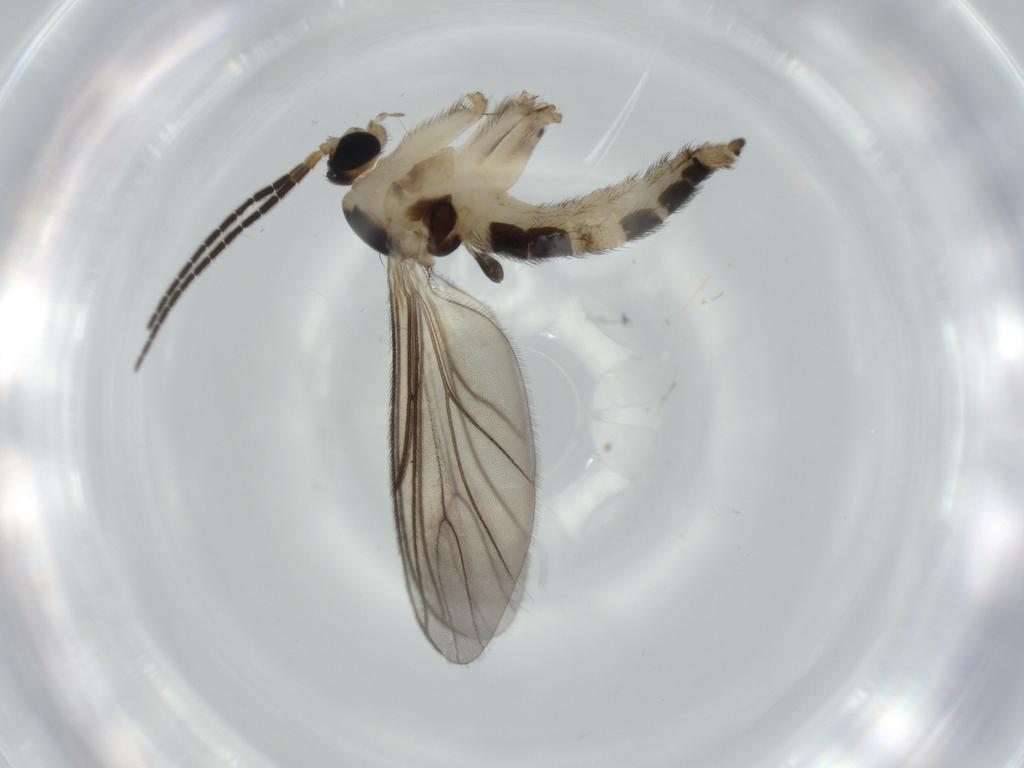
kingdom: Animalia
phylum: Arthropoda
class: Insecta
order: Diptera
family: Sciaridae
